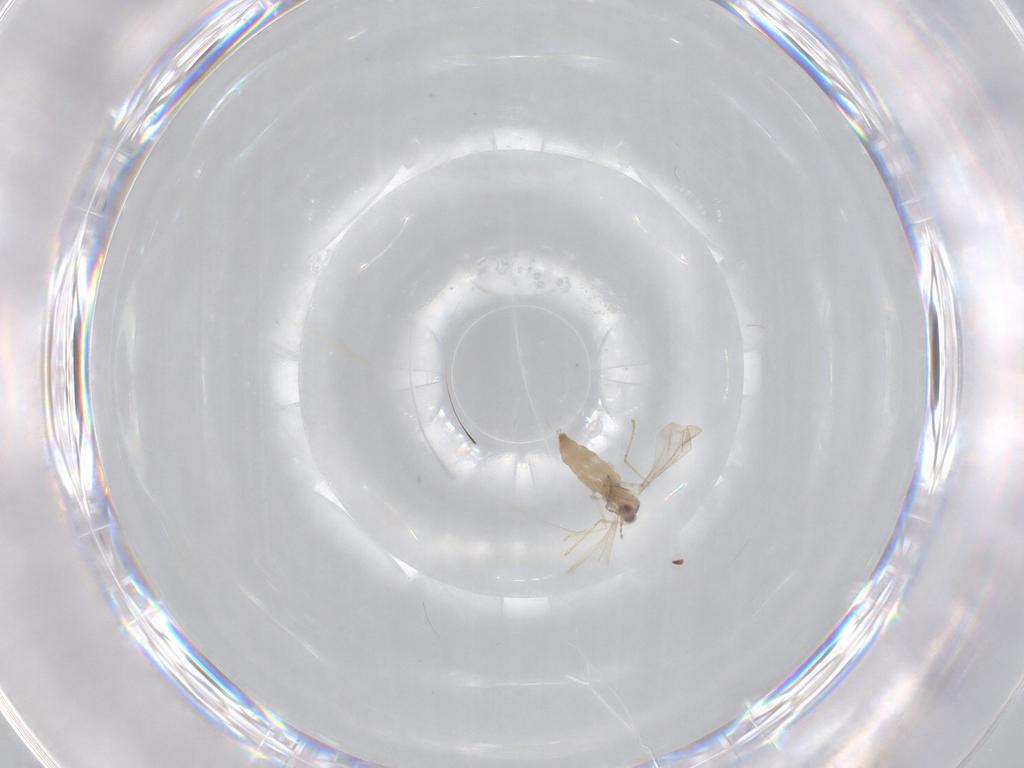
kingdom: Animalia
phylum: Arthropoda
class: Insecta
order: Diptera
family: Cecidomyiidae
